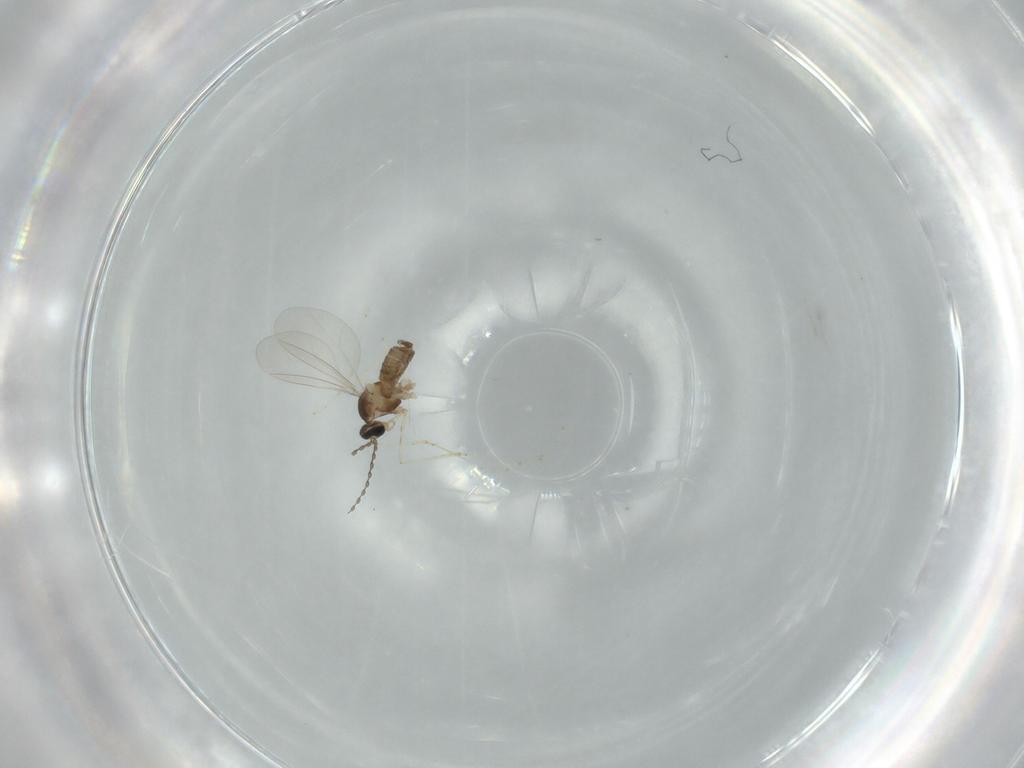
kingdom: Animalia
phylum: Arthropoda
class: Insecta
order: Diptera
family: Cecidomyiidae
